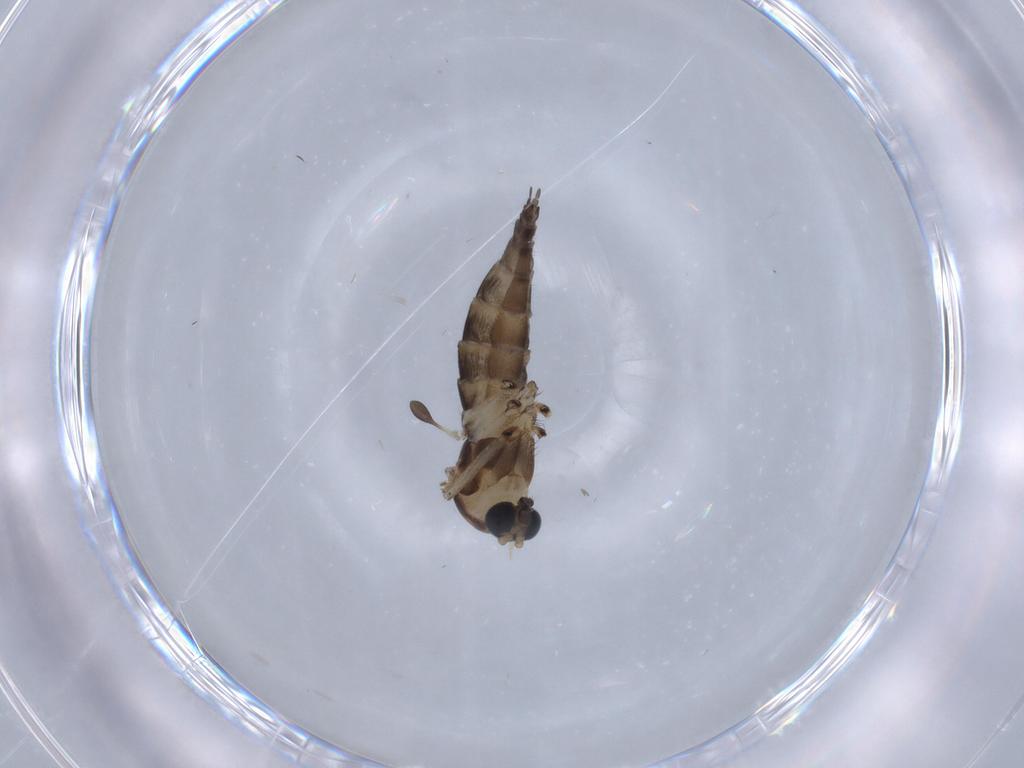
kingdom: Animalia
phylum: Arthropoda
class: Insecta
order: Diptera
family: Sciaridae
